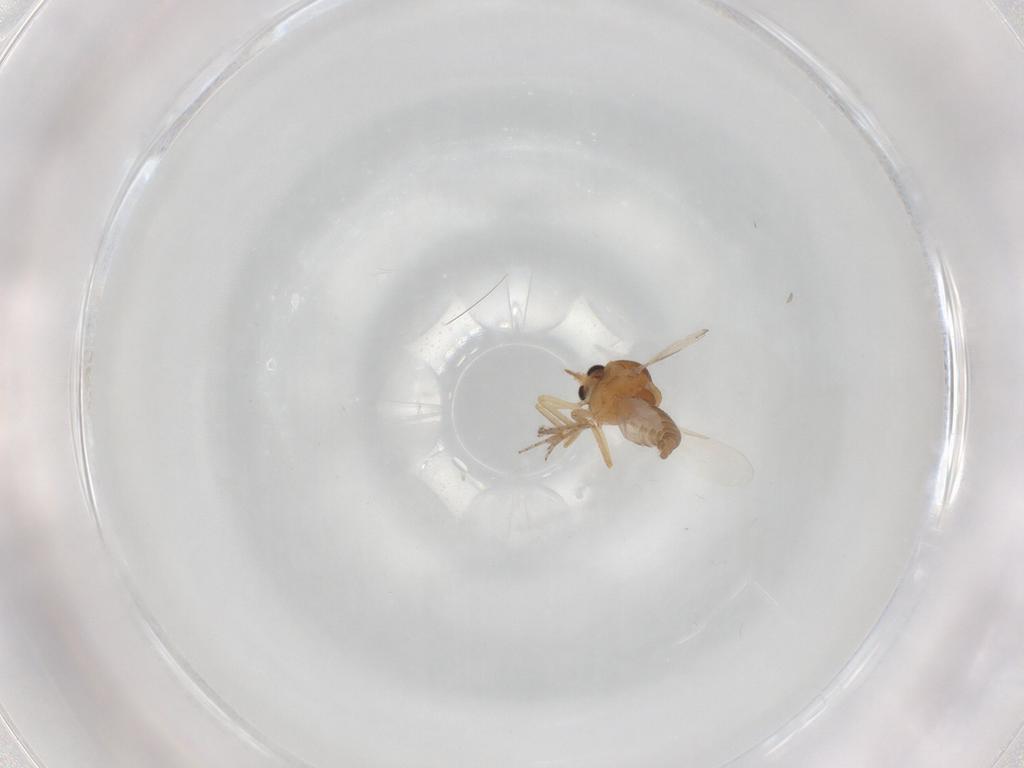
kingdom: Animalia
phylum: Arthropoda
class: Insecta
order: Diptera
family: Ceratopogonidae
